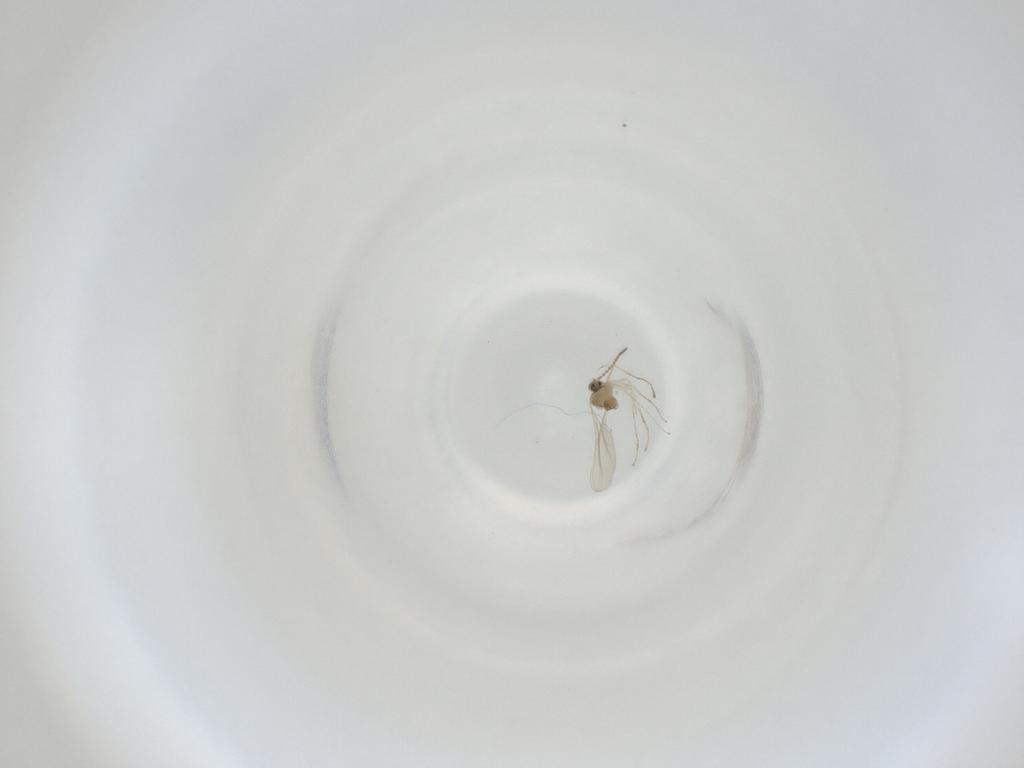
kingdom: Animalia
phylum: Arthropoda
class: Insecta
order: Diptera
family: Cecidomyiidae
